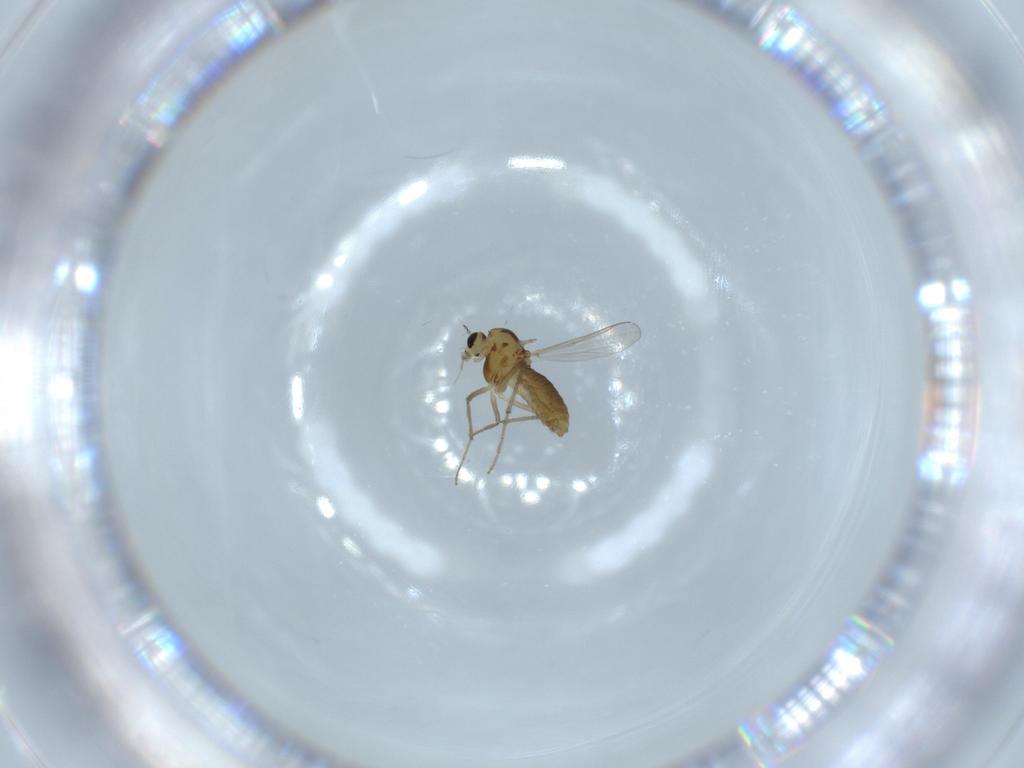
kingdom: Animalia
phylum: Arthropoda
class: Insecta
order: Diptera
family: Chironomidae
